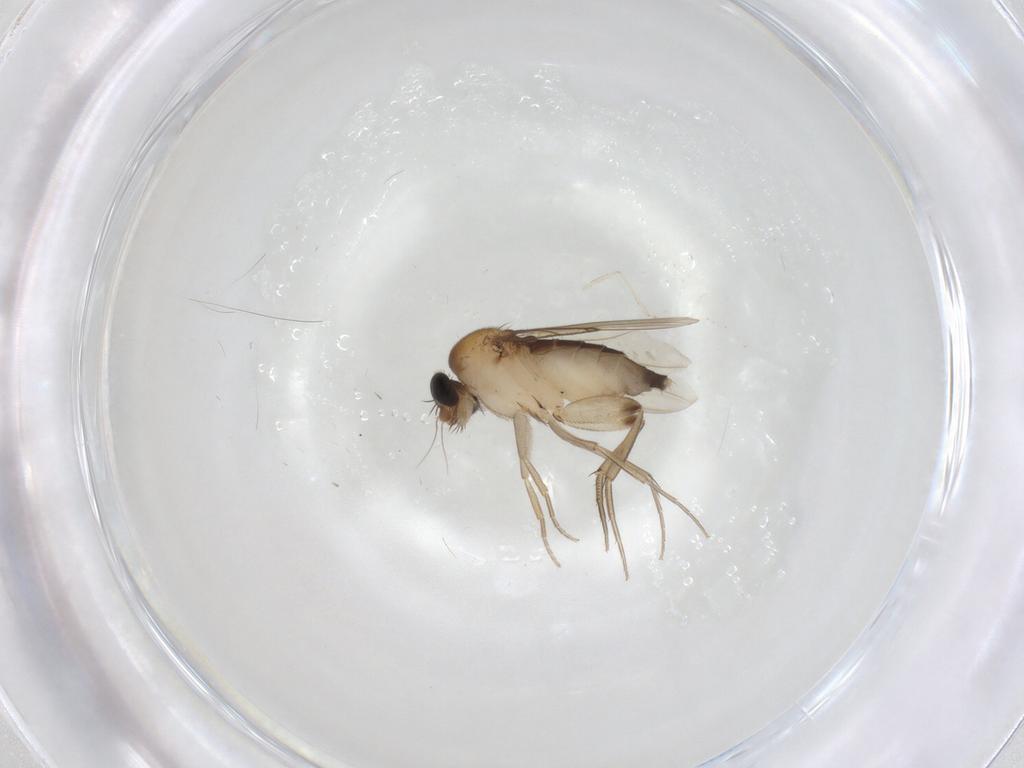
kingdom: Animalia
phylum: Arthropoda
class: Insecta
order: Diptera
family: Phoridae
